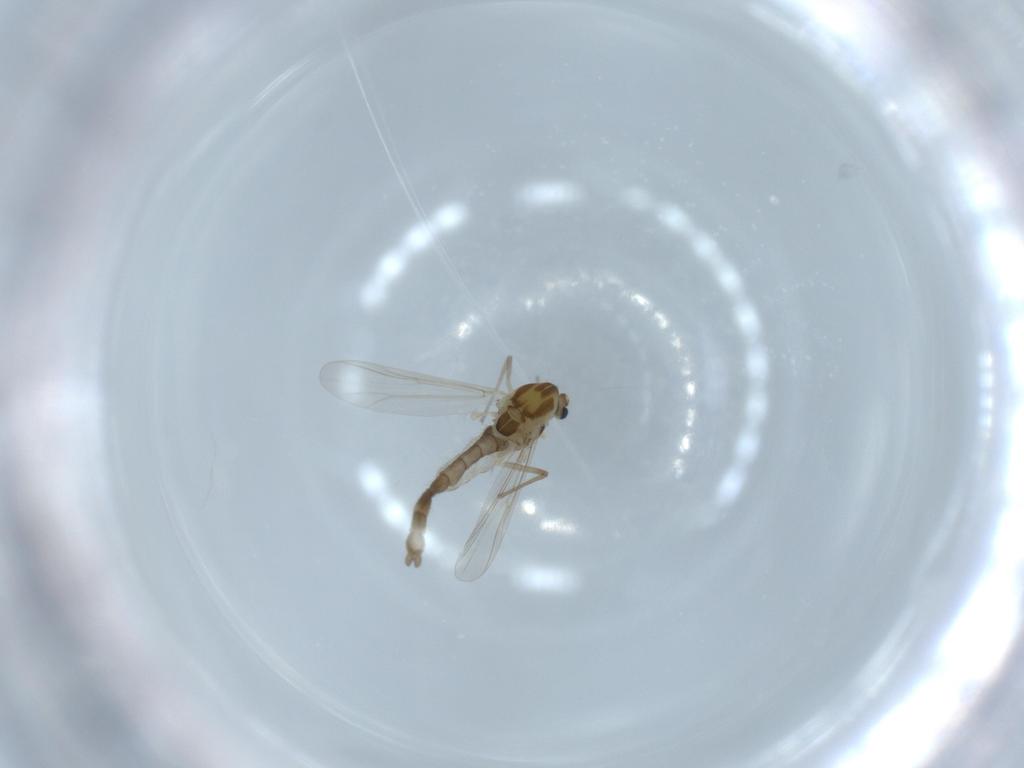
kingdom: Animalia
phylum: Arthropoda
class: Insecta
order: Diptera
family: Chironomidae
